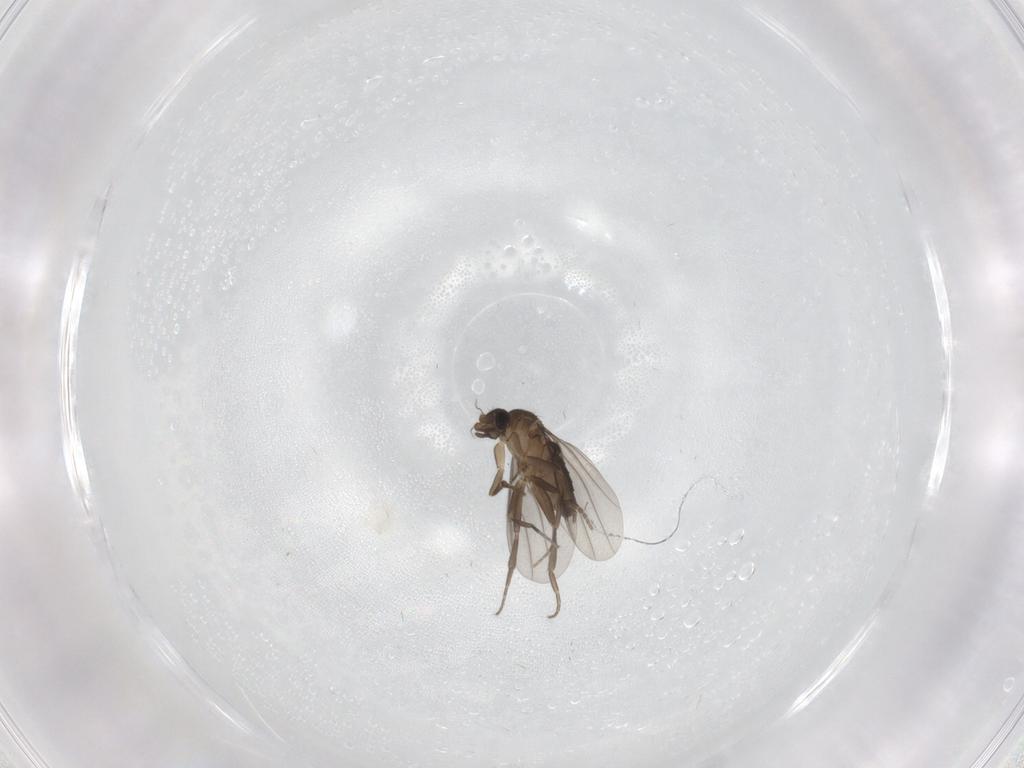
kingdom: Animalia
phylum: Arthropoda
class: Insecta
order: Diptera
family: Phoridae
